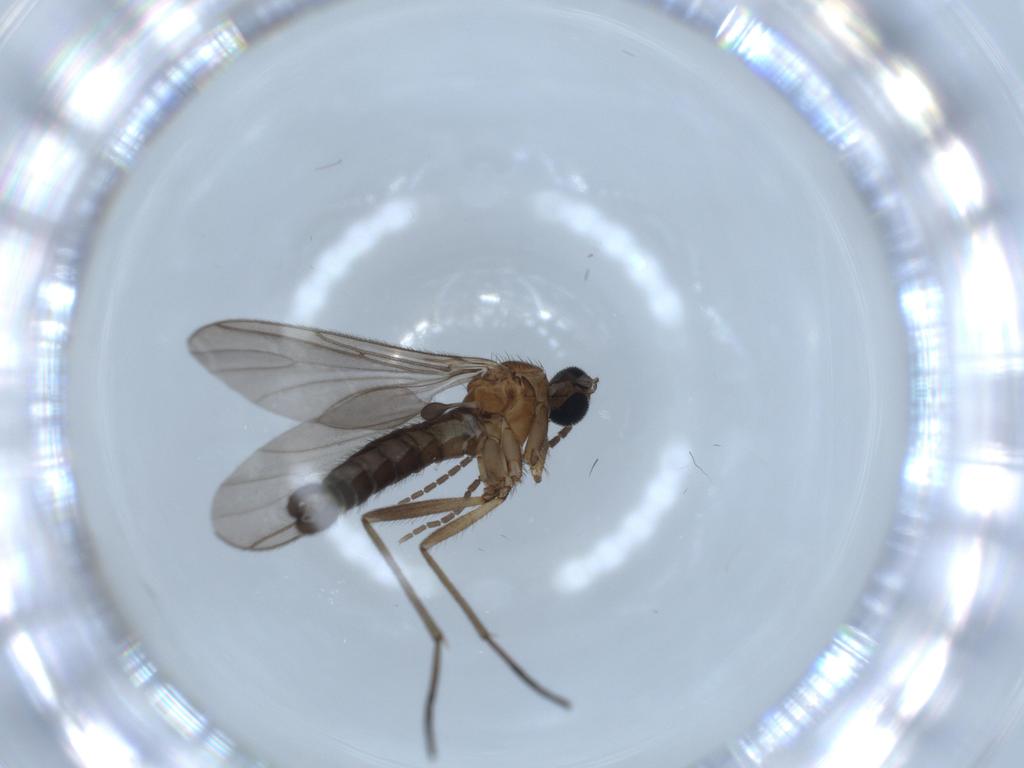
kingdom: Animalia
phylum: Arthropoda
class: Insecta
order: Diptera
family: Sciaridae
